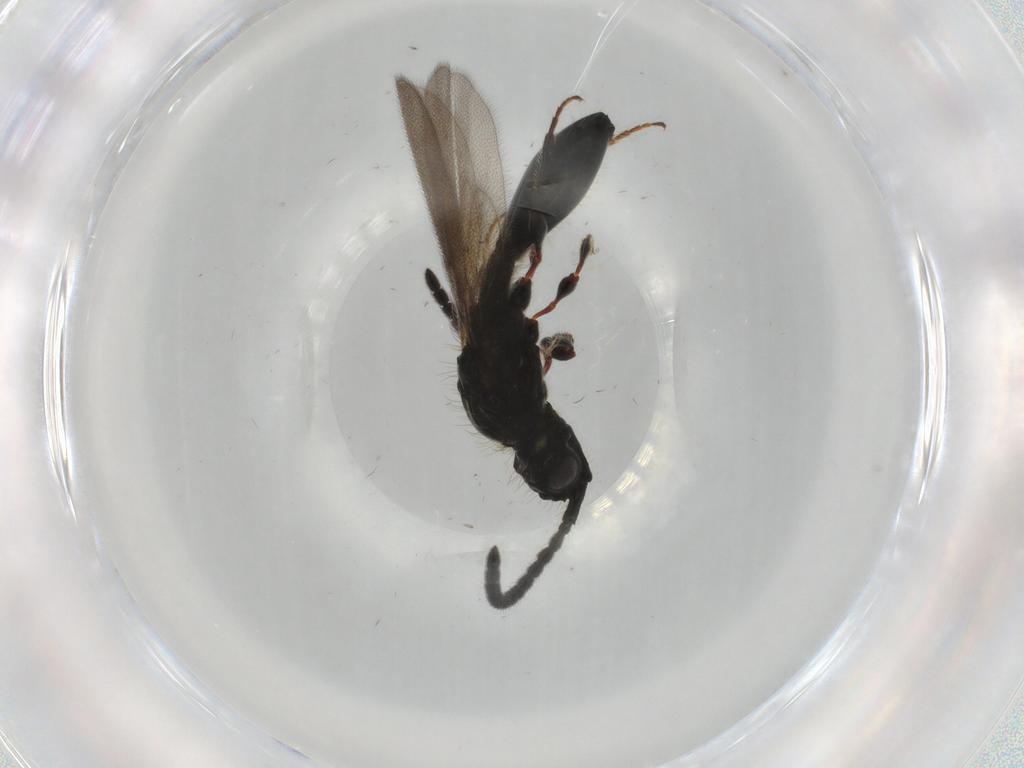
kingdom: Animalia
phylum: Arthropoda
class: Insecta
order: Hymenoptera
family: Diapriidae
